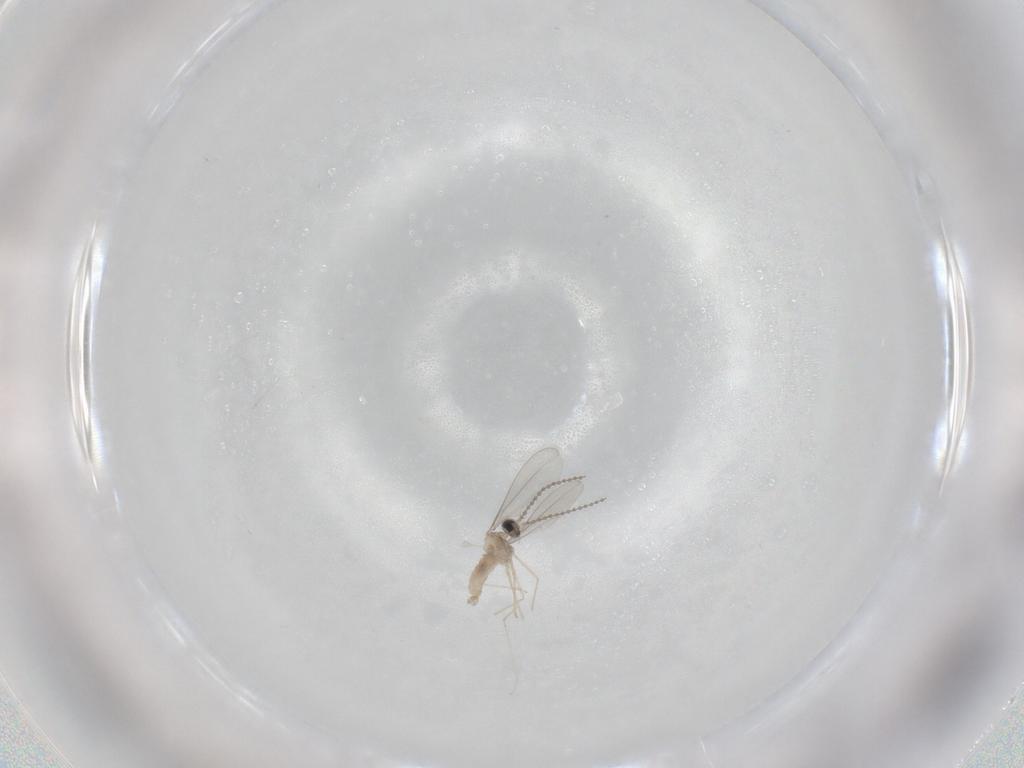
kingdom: Animalia
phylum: Arthropoda
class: Insecta
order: Diptera
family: Cecidomyiidae
